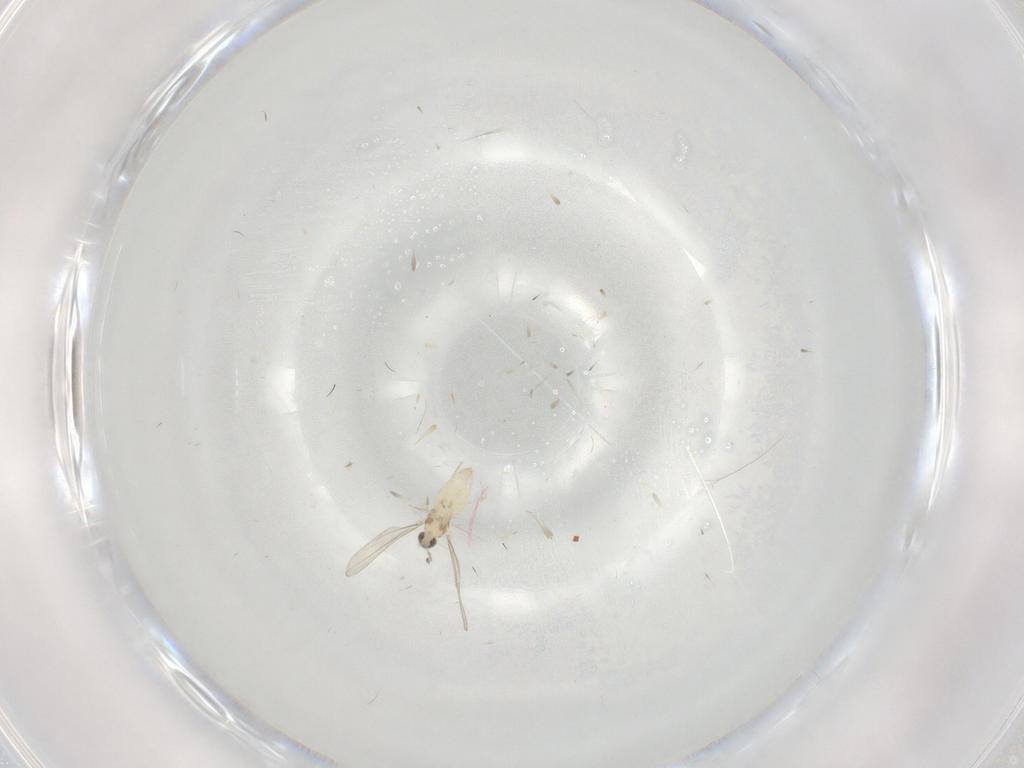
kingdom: Animalia
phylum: Arthropoda
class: Insecta
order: Diptera
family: Cecidomyiidae
